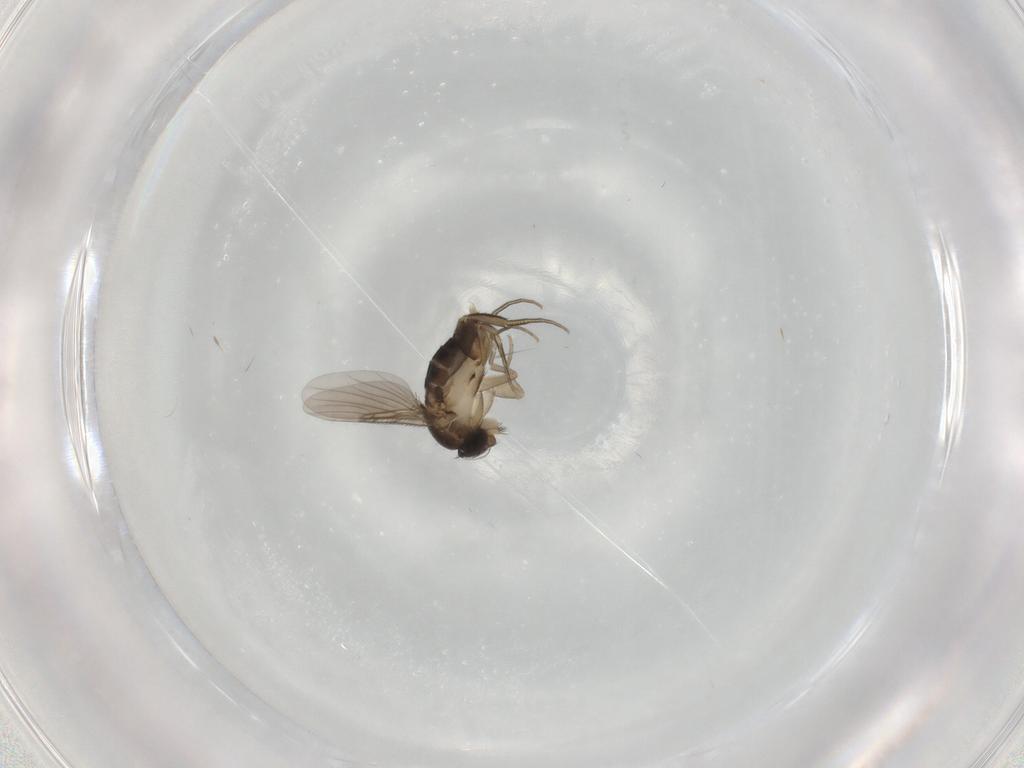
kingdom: Animalia
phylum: Arthropoda
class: Insecta
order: Diptera
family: Phoridae
